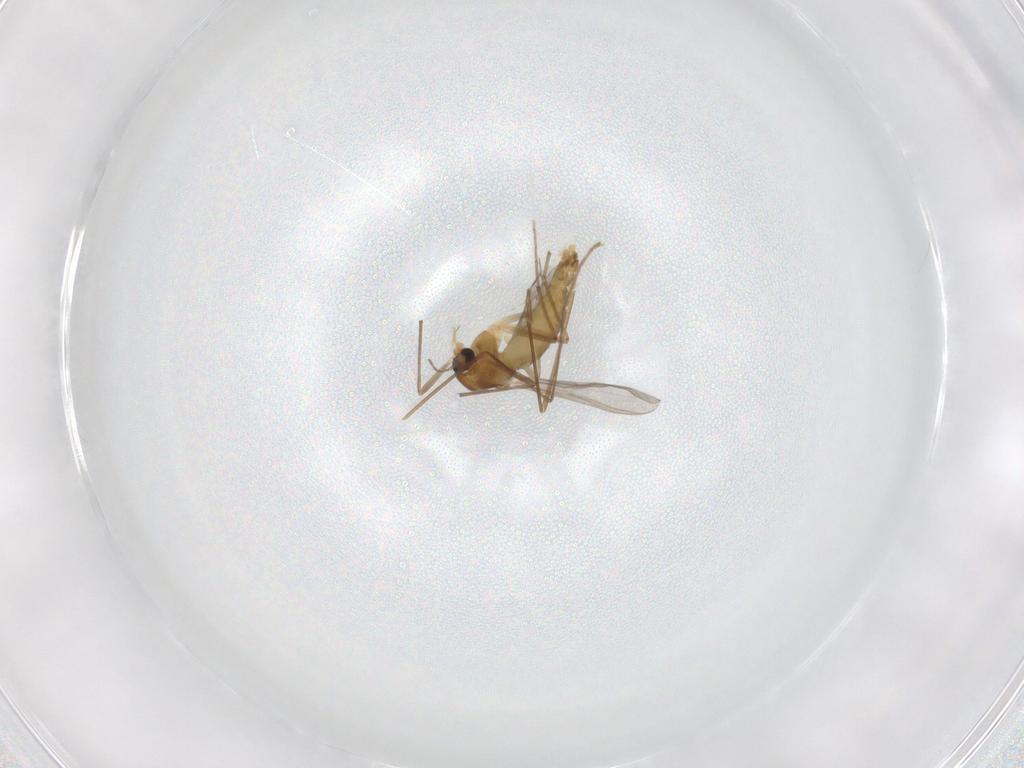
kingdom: Animalia
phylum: Arthropoda
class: Insecta
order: Diptera
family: Chironomidae
